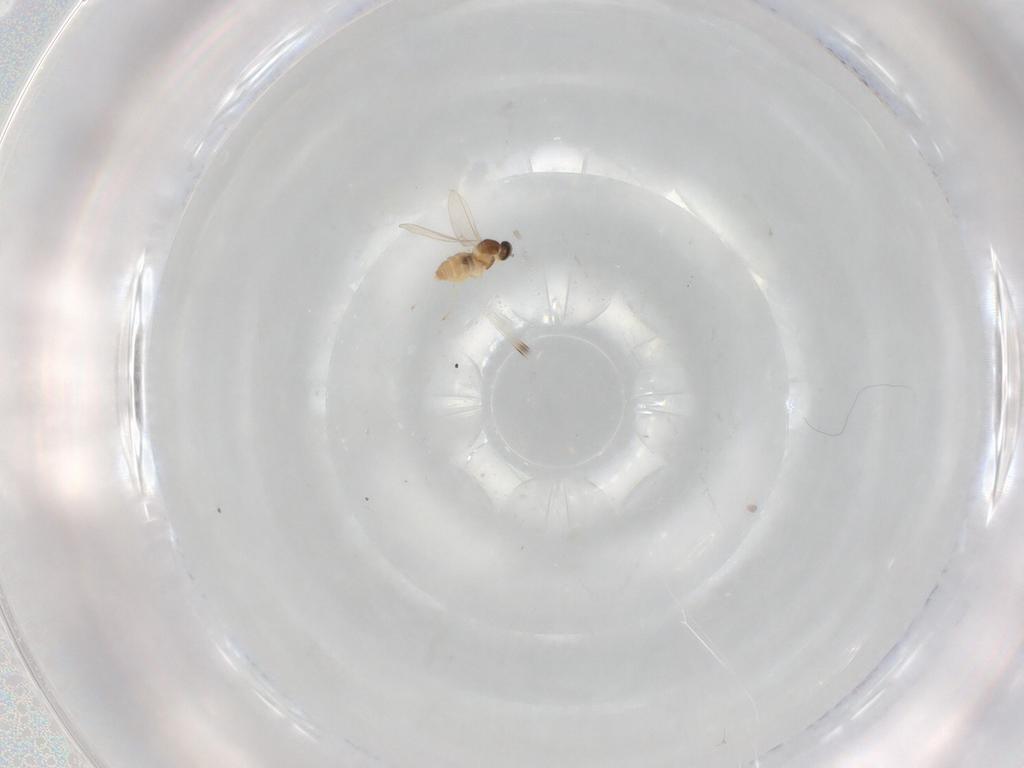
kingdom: Animalia
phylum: Arthropoda
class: Insecta
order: Diptera
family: Cecidomyiidae
